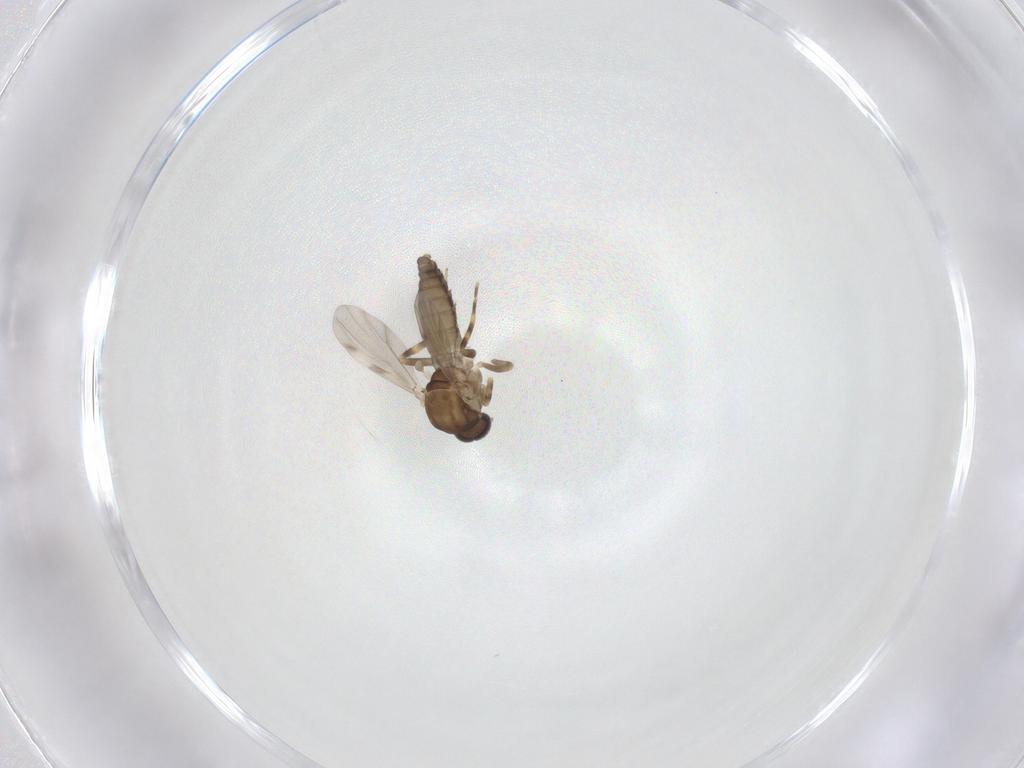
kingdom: Animalia
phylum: Arthropoda
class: Insecta
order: Diptera
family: Ceratopogonidae
